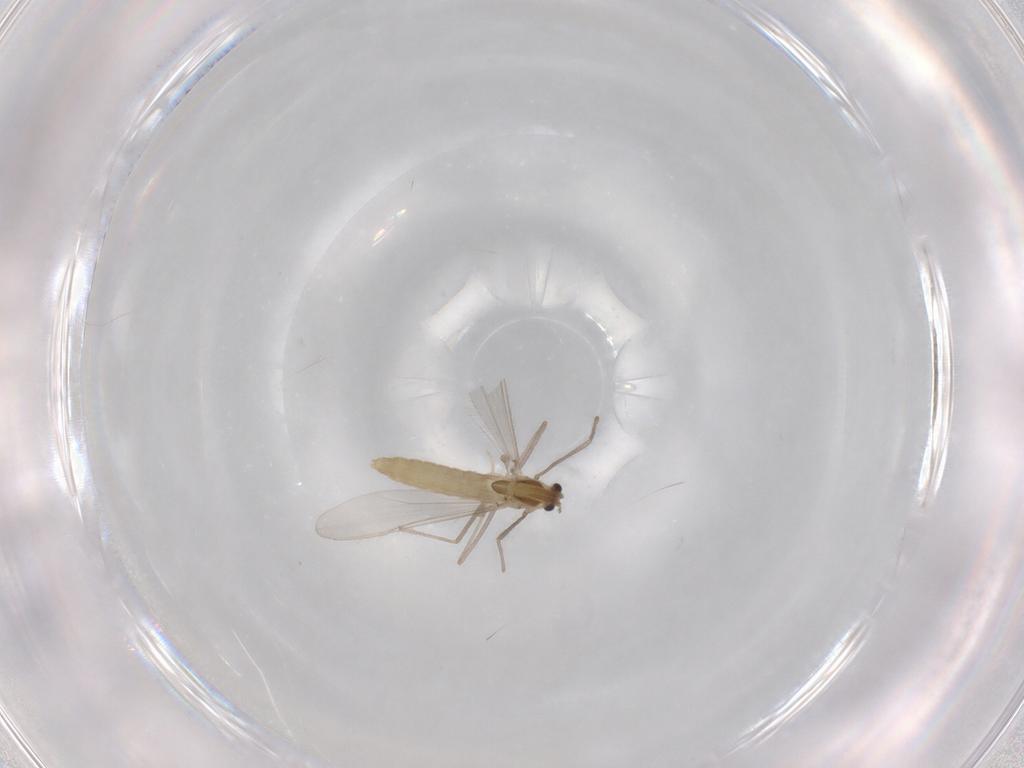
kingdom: Animalia
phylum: Arthropoda
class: Insecta
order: Diptera
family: Chironomidae
